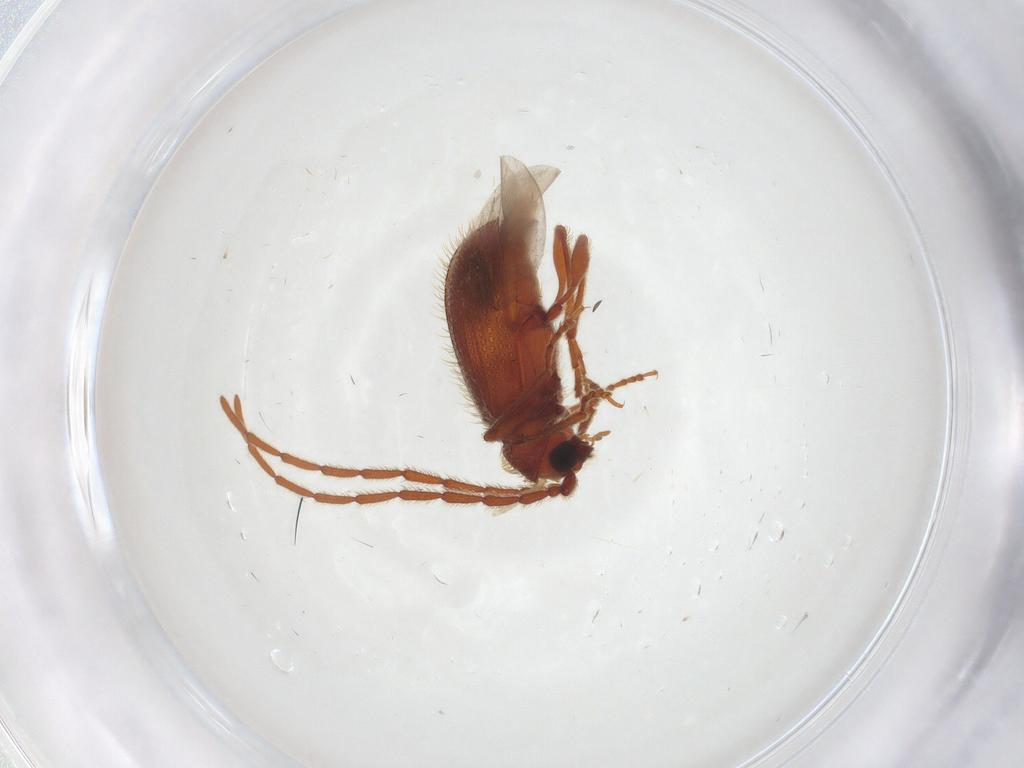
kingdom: Animalia
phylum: Arthropoda
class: Insecta
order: Coleoptera
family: Ptinidae
